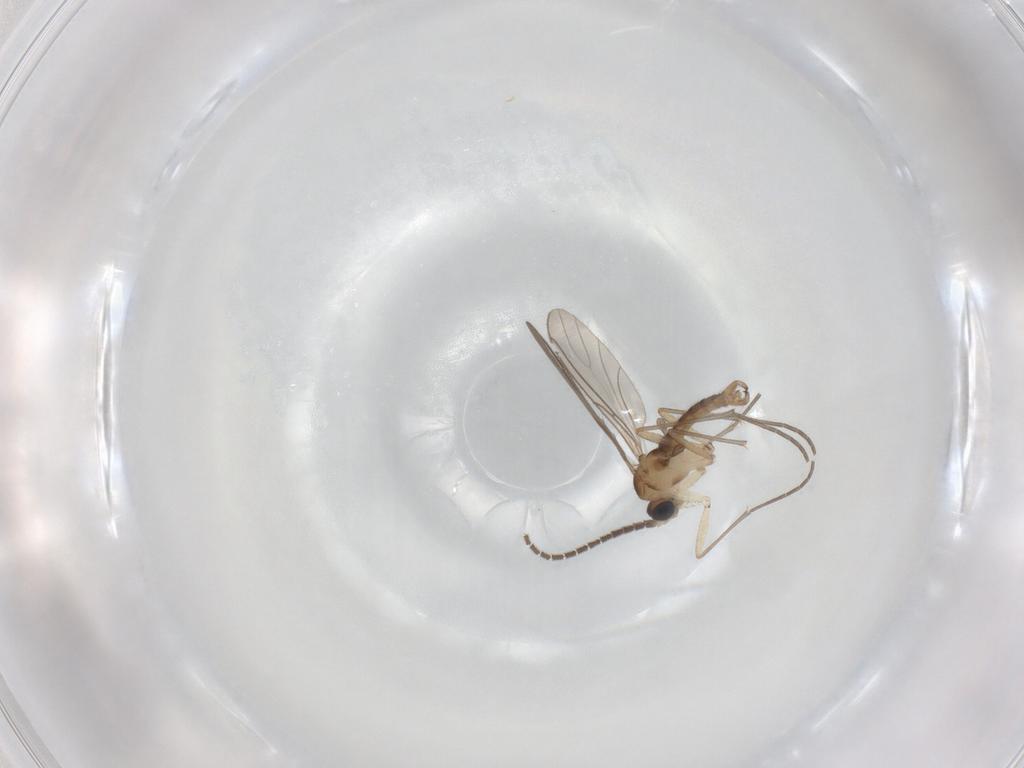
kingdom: Animalia
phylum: Arthropoda
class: Insecta
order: Diptera
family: Sciaridae
